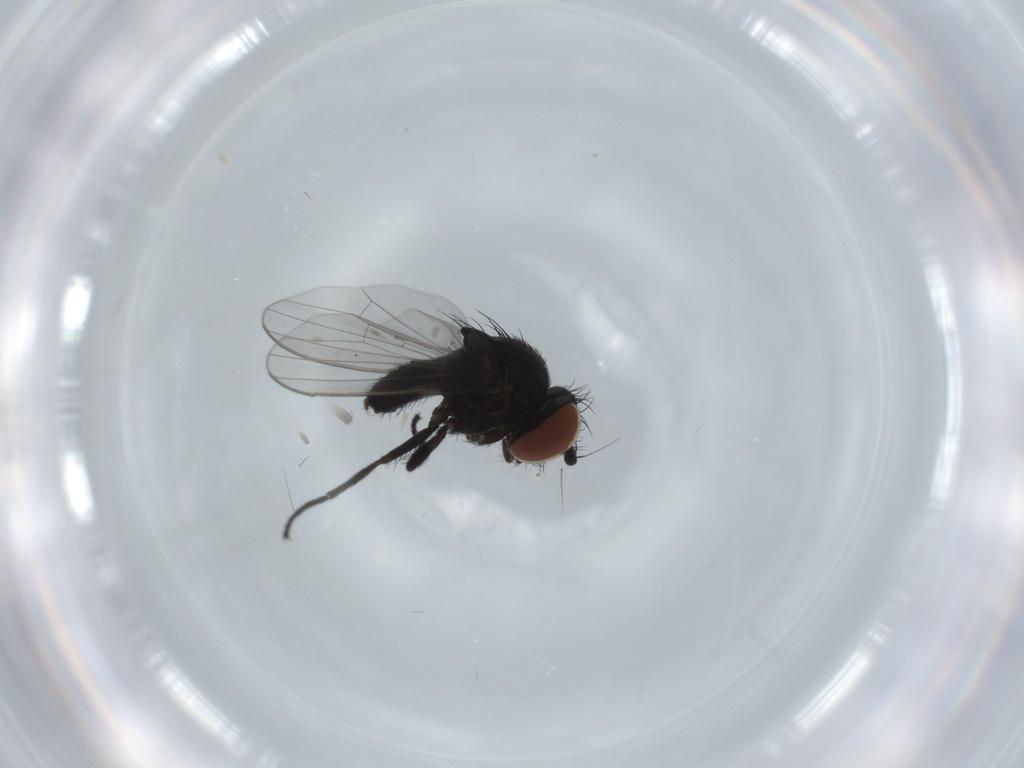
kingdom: Animalia
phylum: Arthropoda
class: Insecta
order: Diptera
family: Milichiidae
